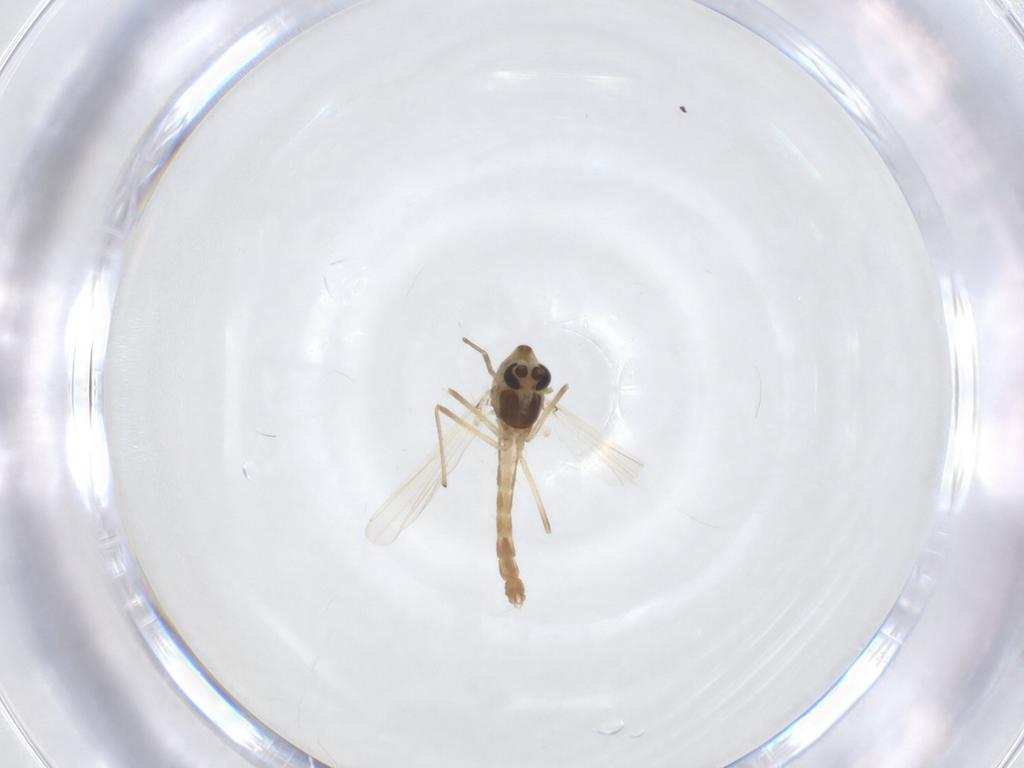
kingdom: Animalia
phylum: Arthropoda
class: Insecta
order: Diptera
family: Chironomidae
